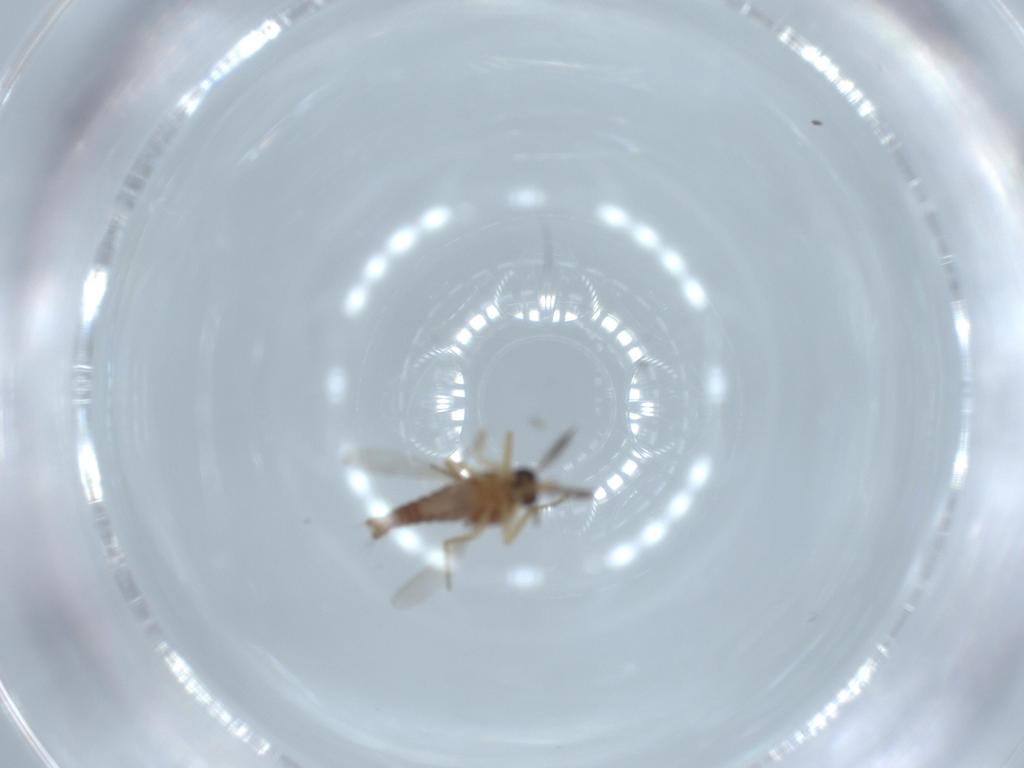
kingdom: Animalia
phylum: Arthropoda
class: Insecta
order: Diptera
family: Ceratopogonidae
